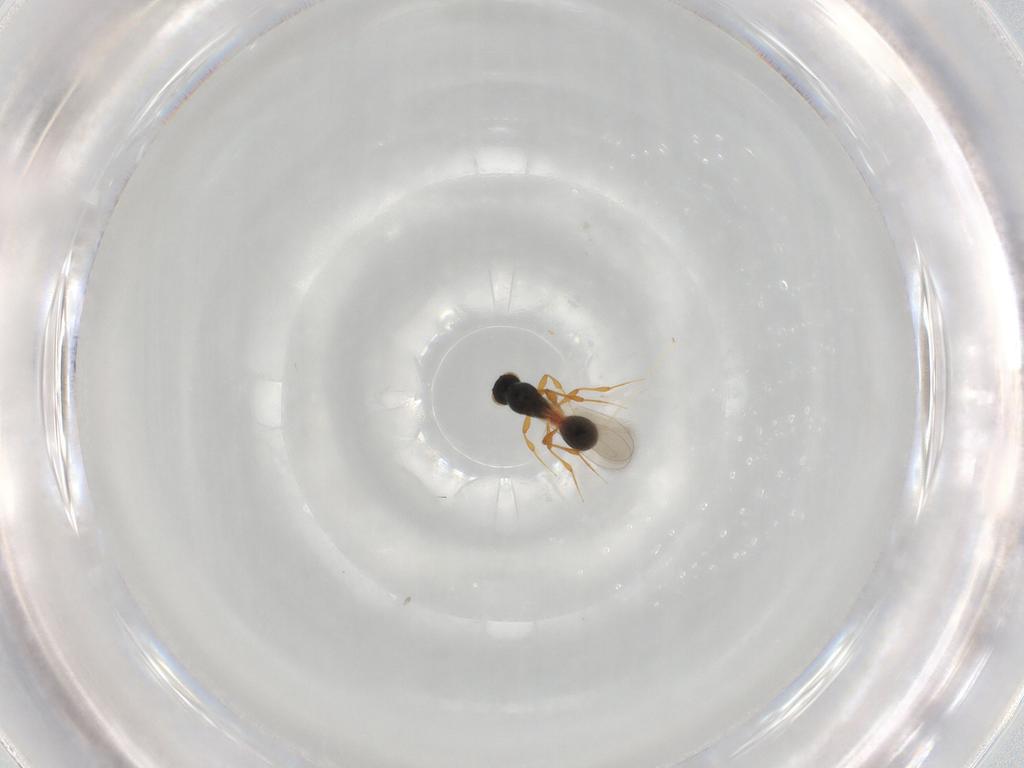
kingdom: Animalia
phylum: Arthropoda
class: Insecta
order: Hymenoptera
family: Platygastridae
